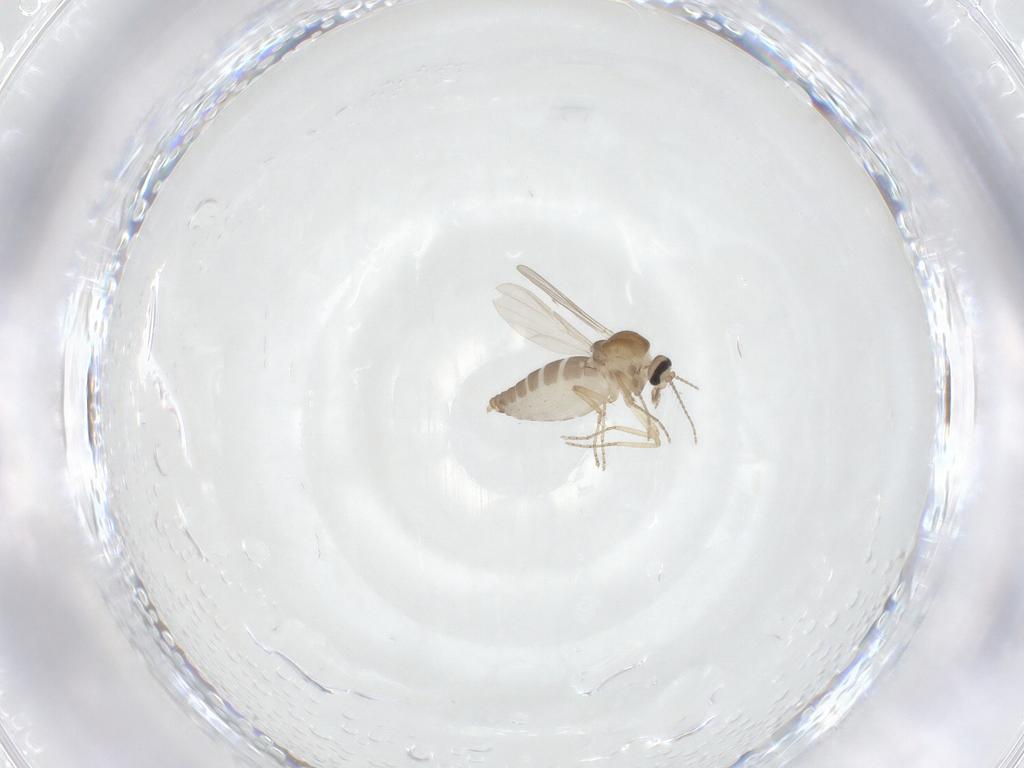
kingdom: Animalia
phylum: Arthropoda
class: Insecta
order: Diptera
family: Ceratopogonidae
